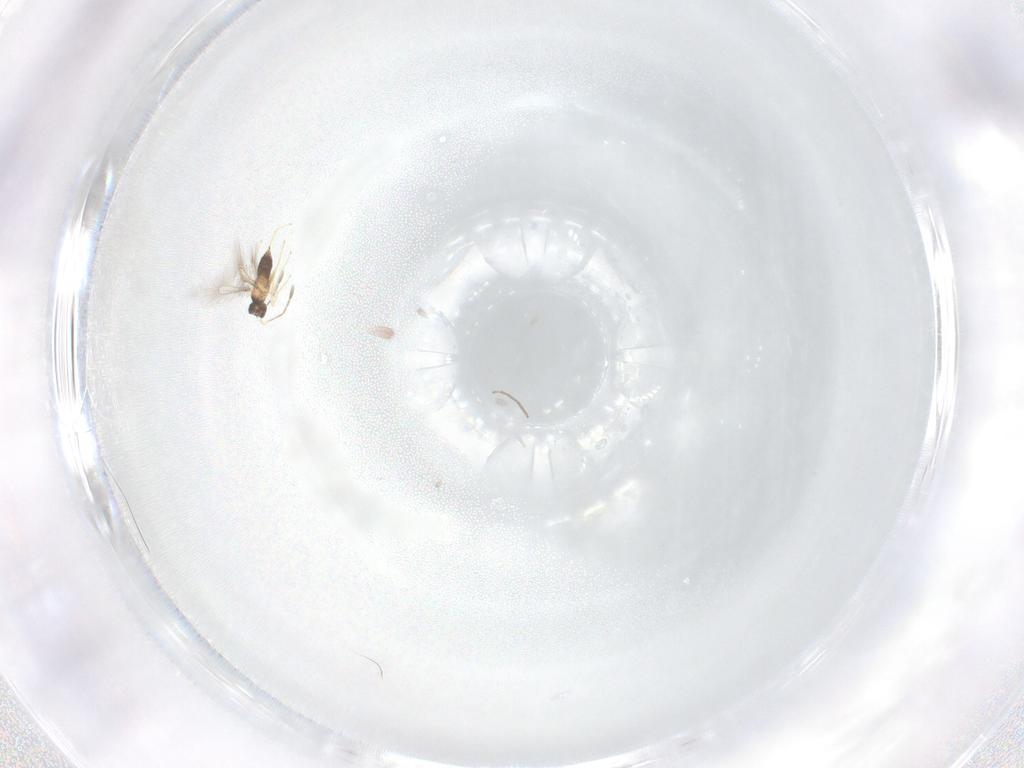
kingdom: Animalia
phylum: Arthropoda
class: Insecta
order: Hymenoptera
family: Mymaridae
